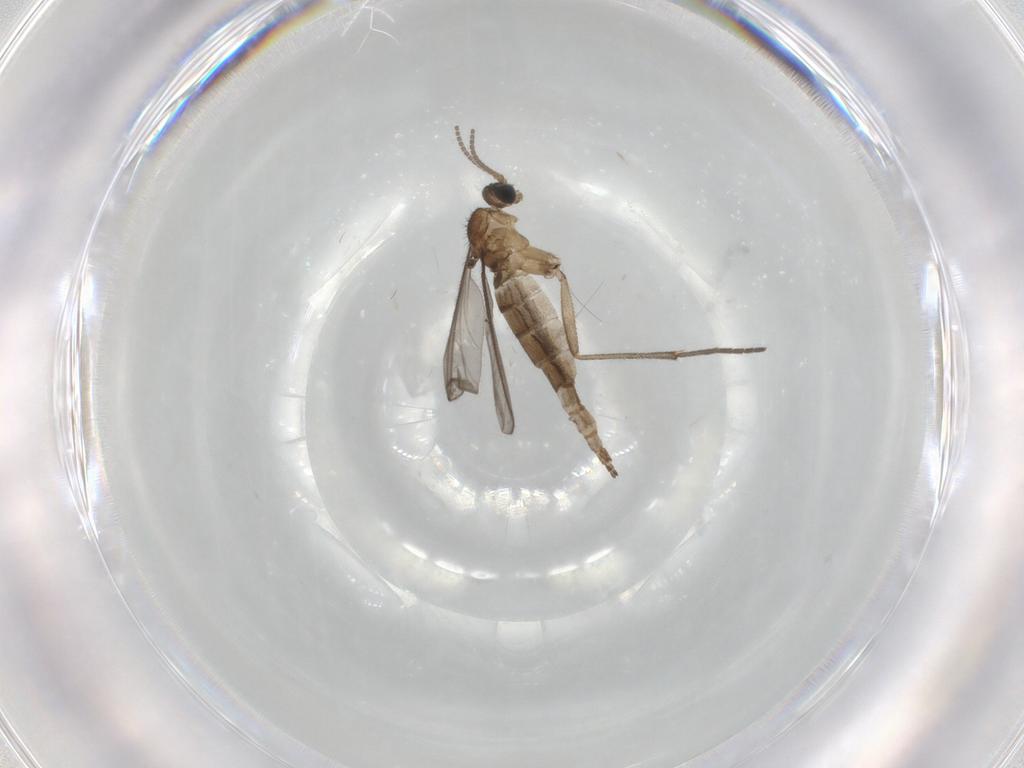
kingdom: Animalia
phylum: Arthropoda
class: Insecta
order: Diptera
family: Sciaridae
